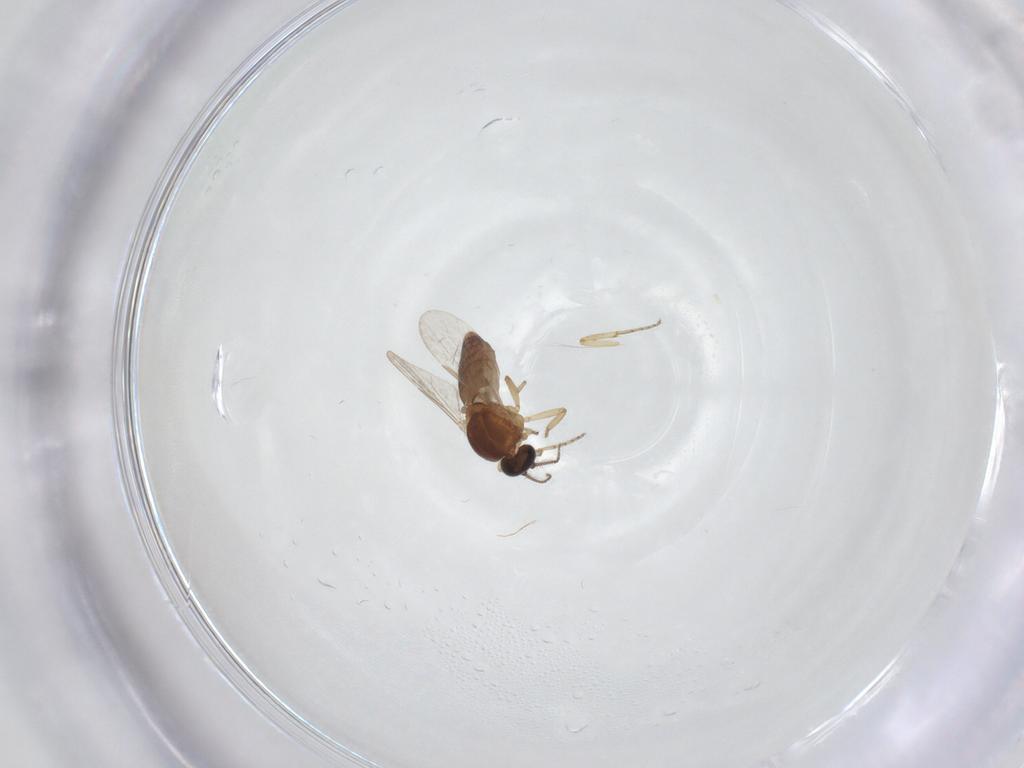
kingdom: Animalia
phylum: Arthropoda
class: Insecta
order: Diptera
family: Ceratopogonidae
